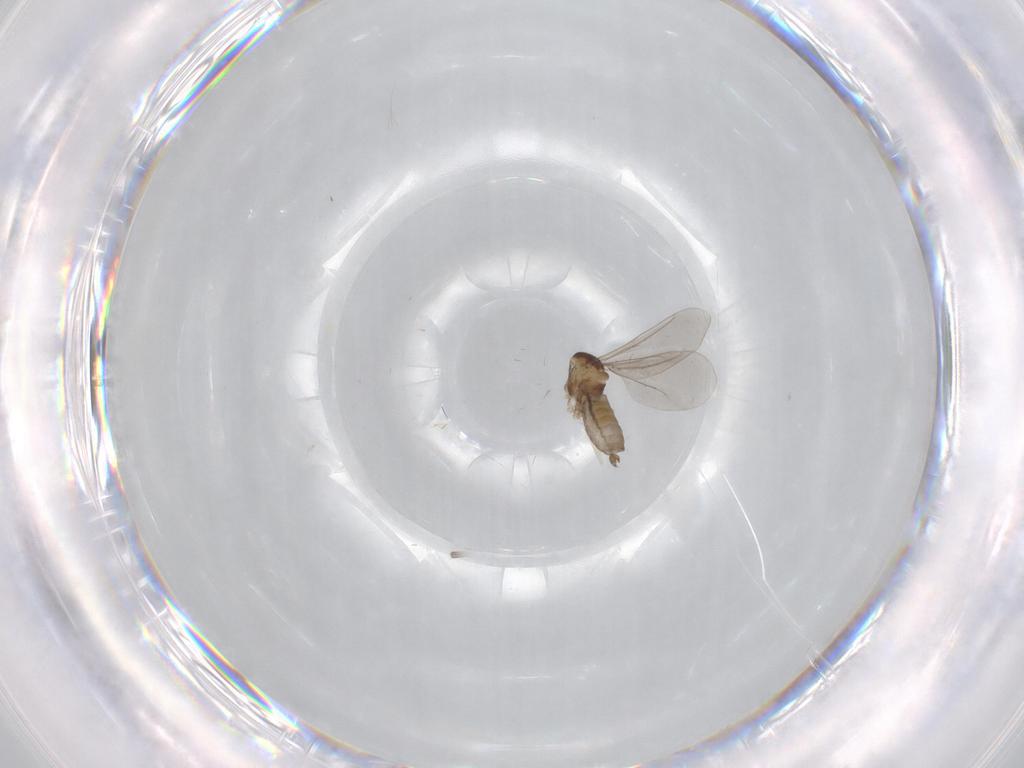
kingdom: Animalia
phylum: Arthropoda
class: Insecta
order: Diptera
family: Cecidomyiidae
